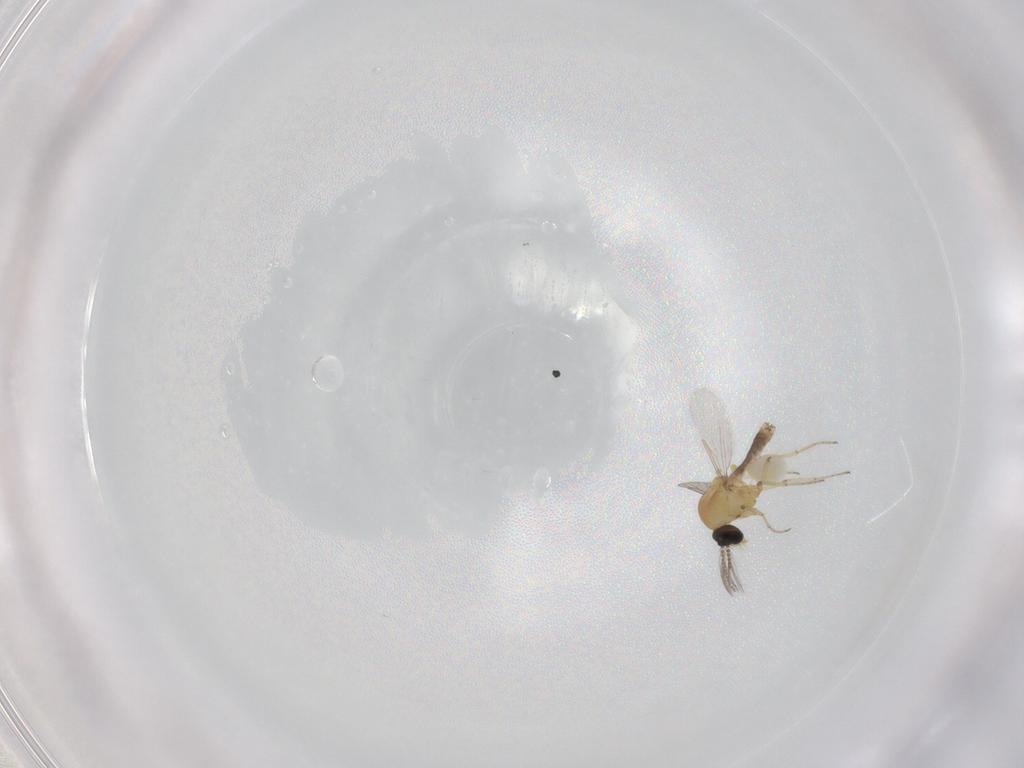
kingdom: Animalia
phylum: Arthropoda
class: Insecta
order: Diptera
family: Ceratopogonidae
